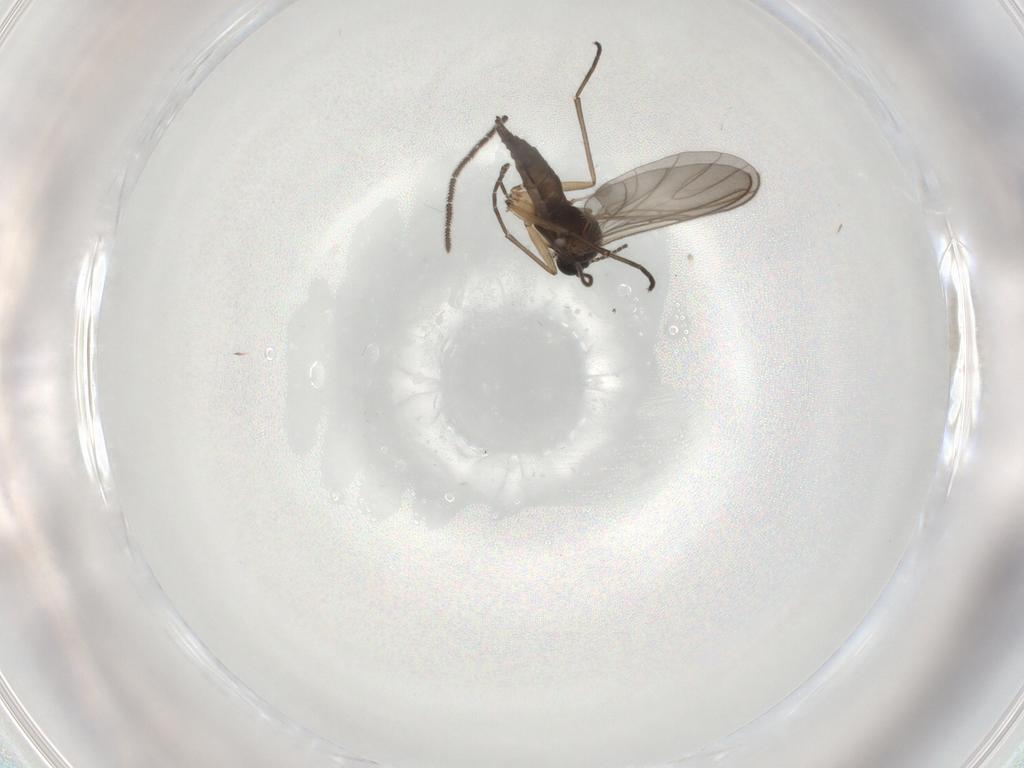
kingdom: Animalia
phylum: Arthropoda
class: Insecta
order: Diptera
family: Sciaridae
